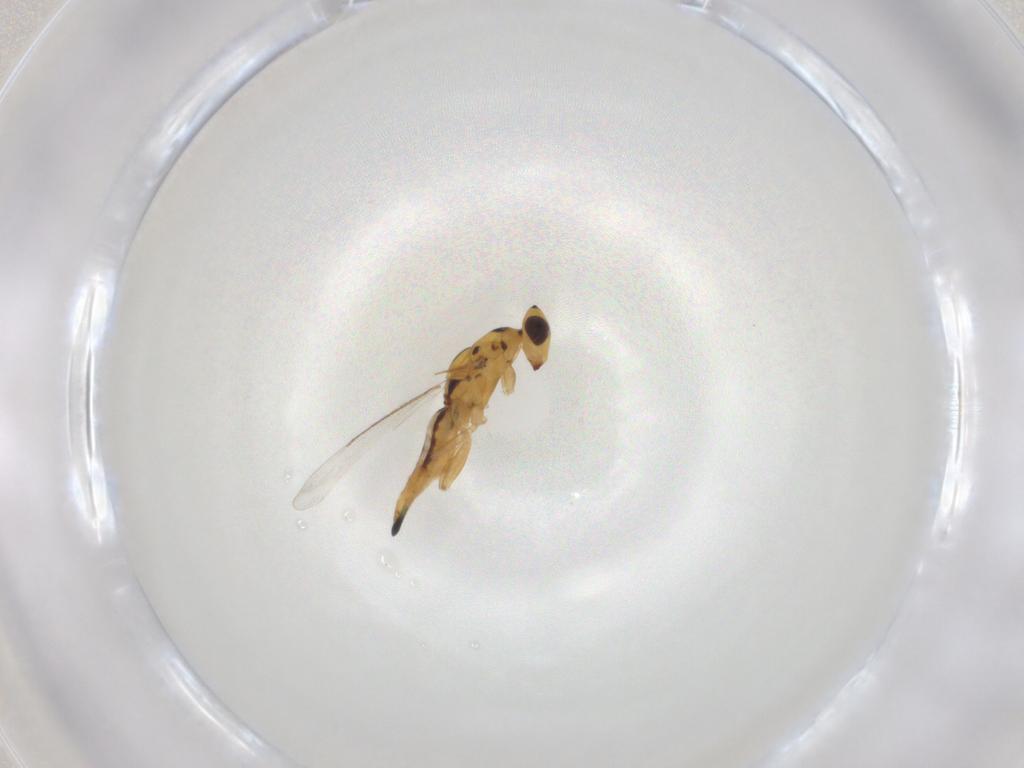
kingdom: Animalia
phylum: Arthropoda
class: Insecta
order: Hymenoptera
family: Eulophidae
